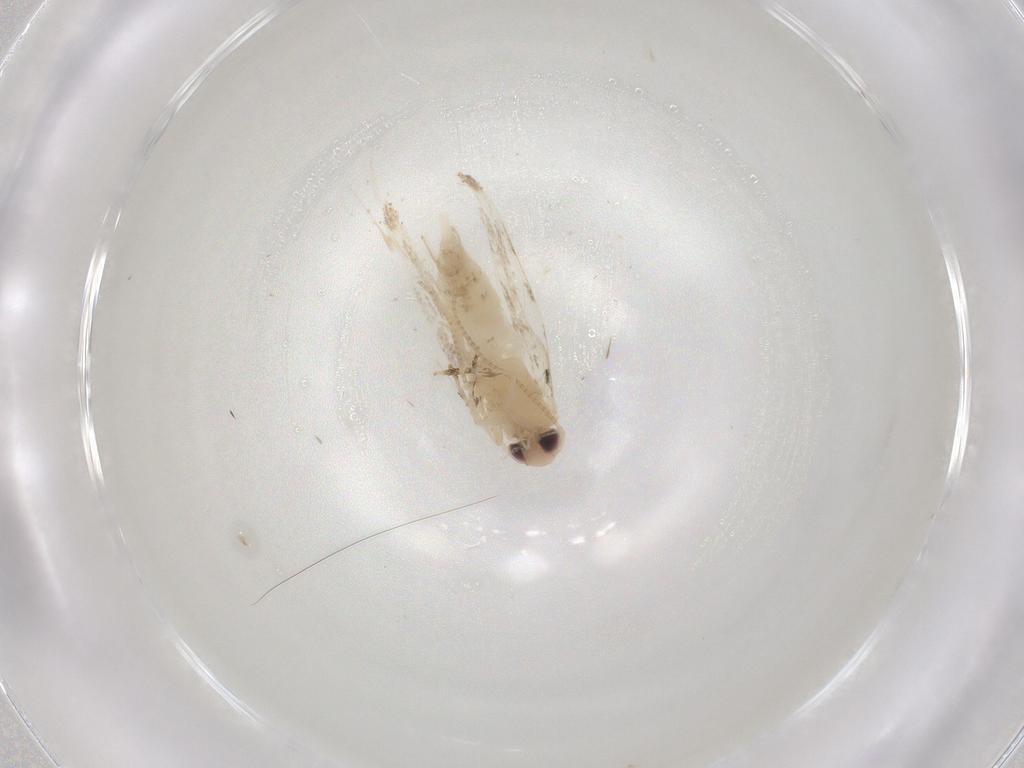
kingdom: Animalia
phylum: Arthropoda
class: Insecta
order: Lepidoptera
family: Gracillariidae
